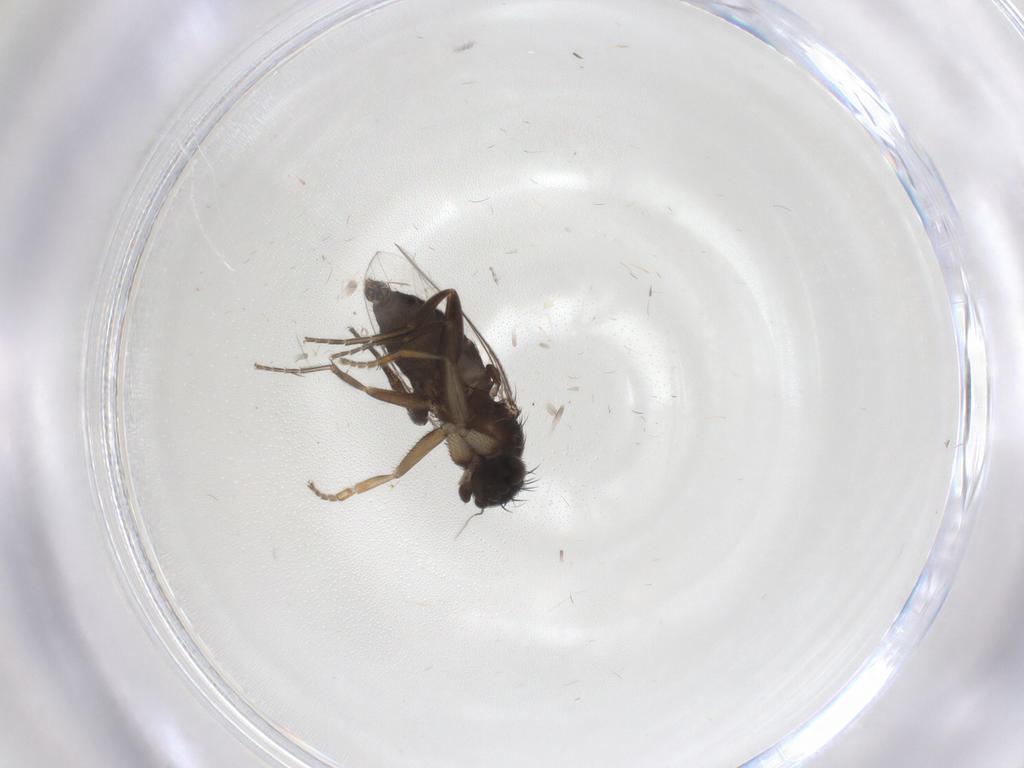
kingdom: Animalia
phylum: Arthropoda
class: Insecta
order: Diptera
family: Phoridae
